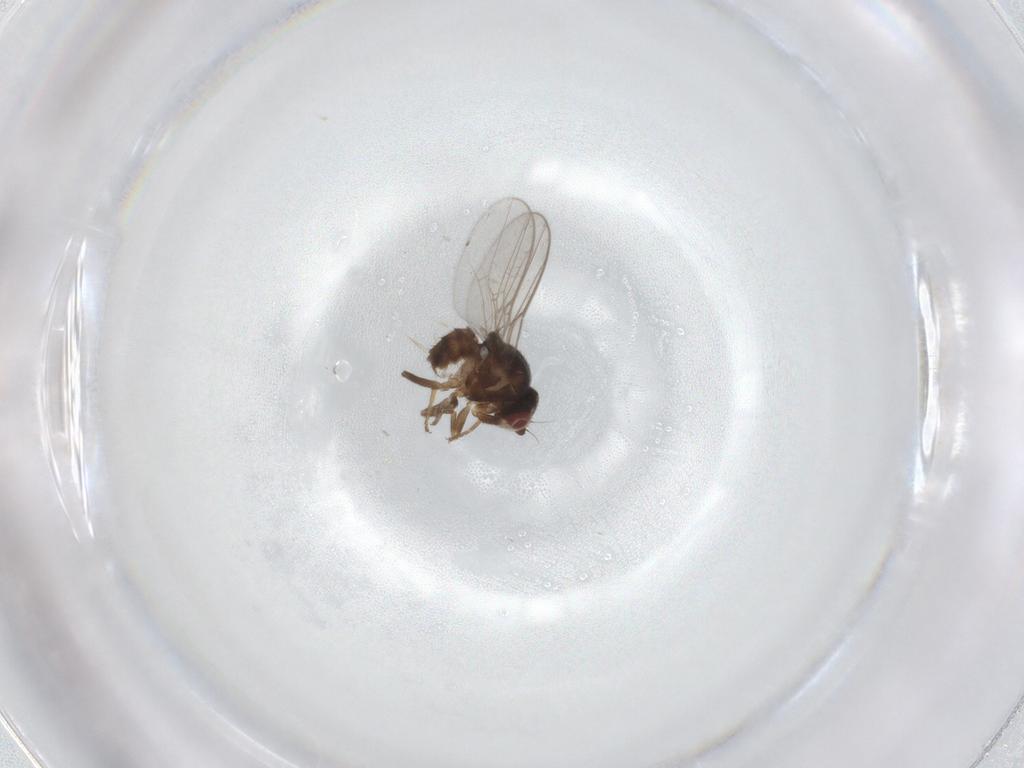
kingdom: Animalia
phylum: Arthropoda
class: Insecta
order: Diptera
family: Chloropidae
